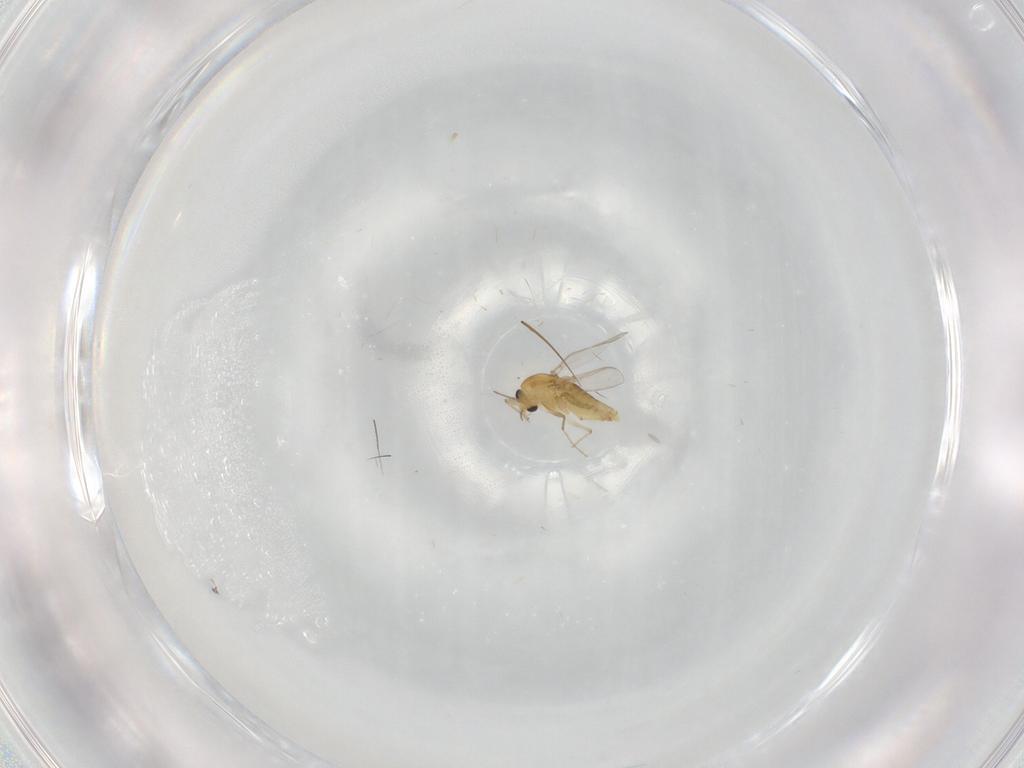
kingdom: Animalia
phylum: Arthropoda
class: Insecta
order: Diptera
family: Chironomidae
